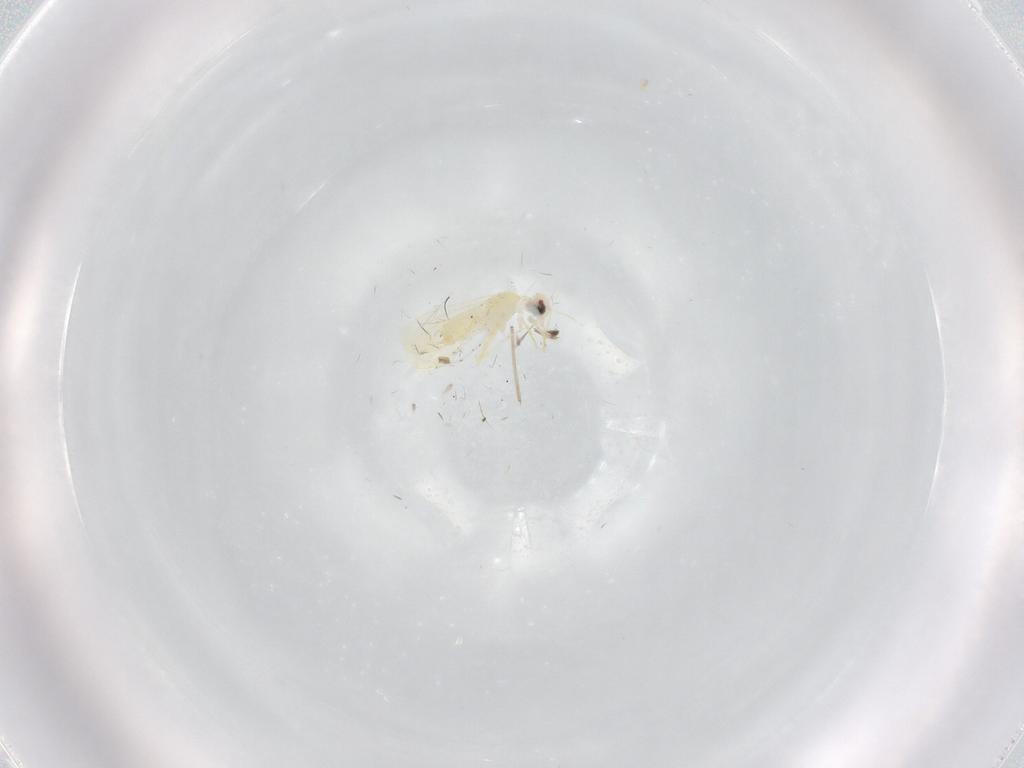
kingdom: Animalia
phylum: Arthropoda
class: Insecta
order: Hemiptera
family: Aleyrodidae
